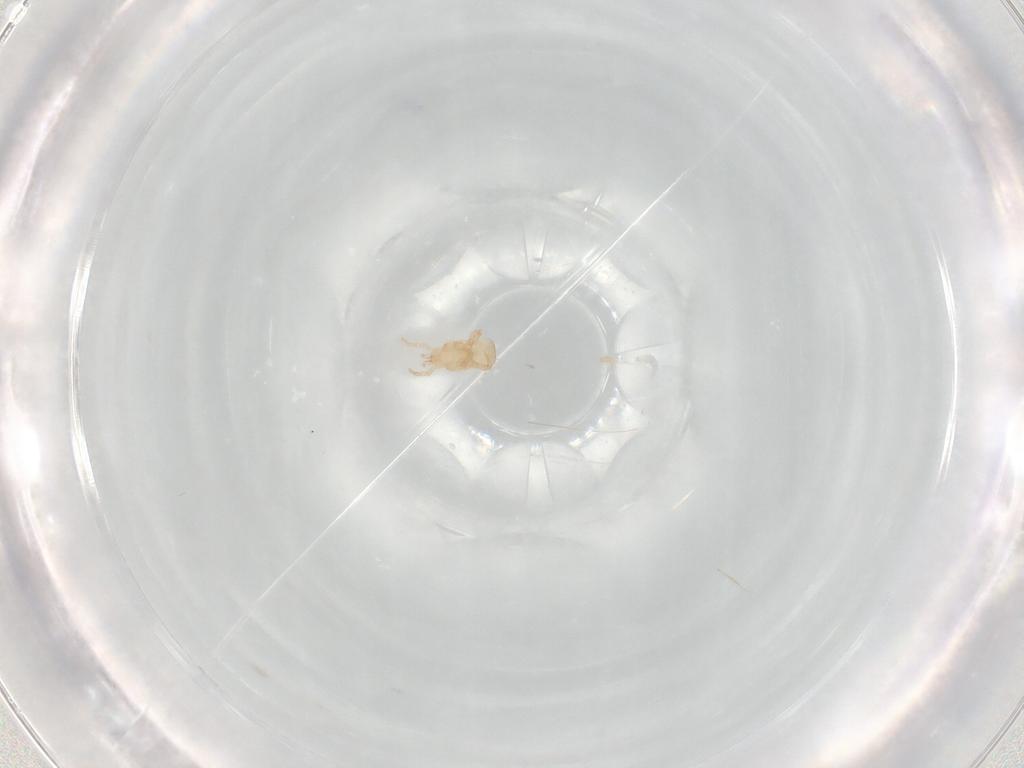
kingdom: Animalia
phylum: Arthropoda
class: Arachnida
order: Mesostigmata
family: Digamasellidae
